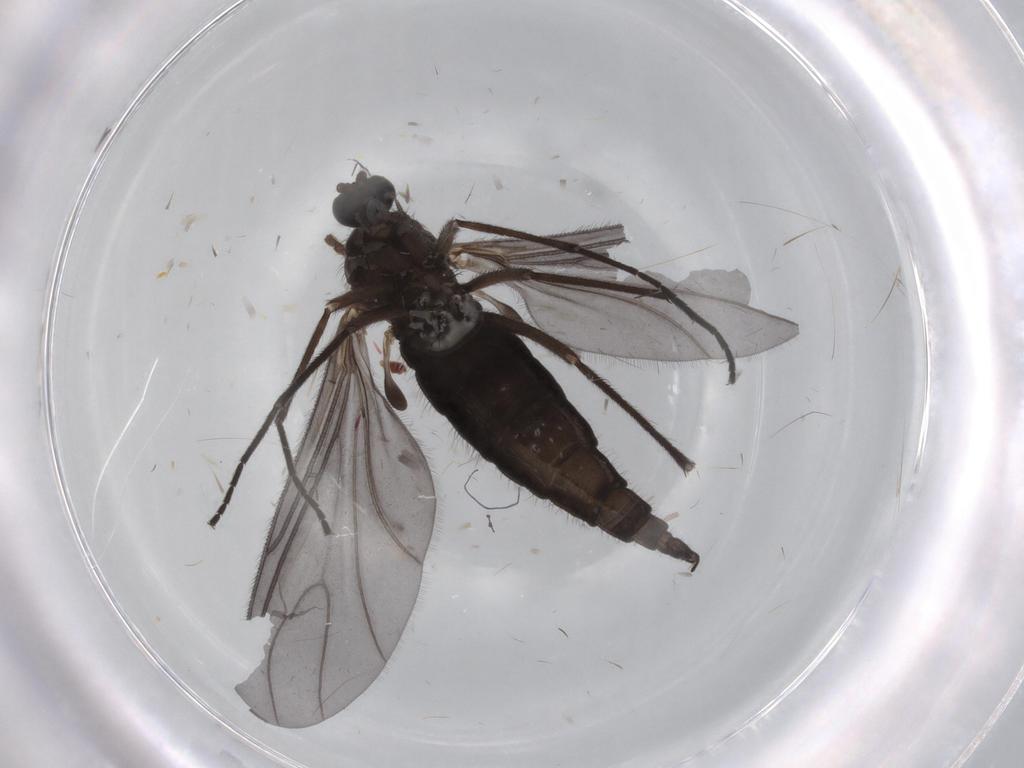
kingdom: Animalia
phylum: Arthropoda
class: Insecta
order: Diptera
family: Sciaridae
